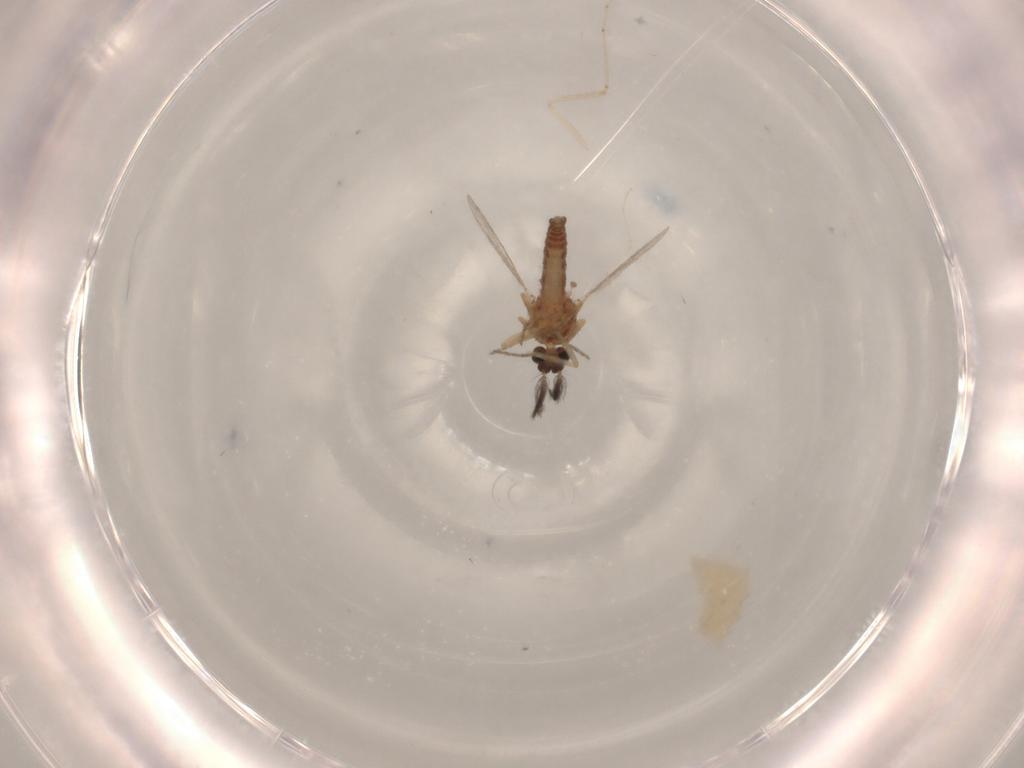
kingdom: Animalia
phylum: Arthropoda
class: Insecta
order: Diptera
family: Ceratopogonidae
